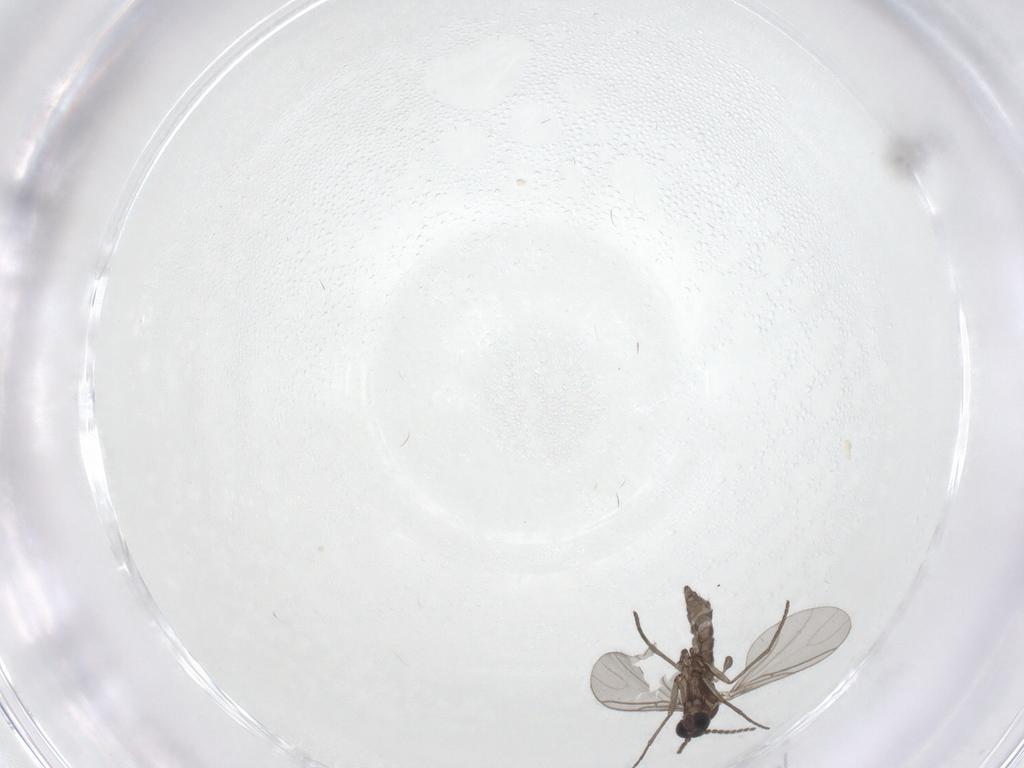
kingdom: Animalia
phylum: Arthropoda
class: Insecta
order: Diptera
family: Psychodidae
